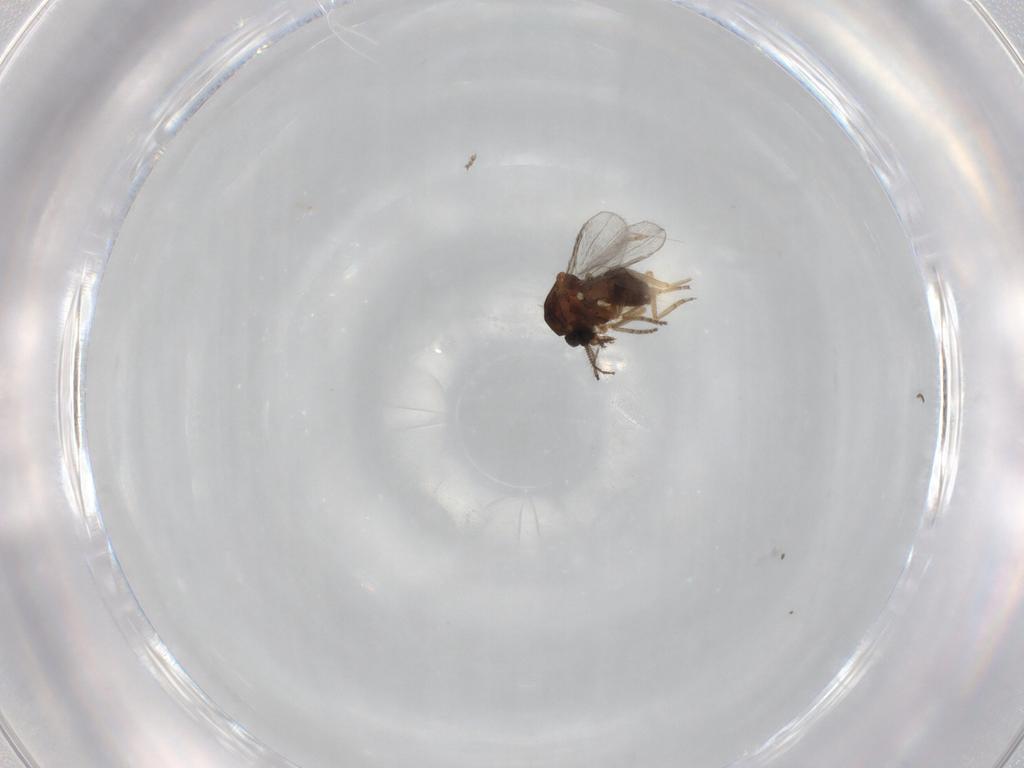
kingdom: Animalia
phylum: Arthropoda
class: Insecta
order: Diptera
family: Ceratopogonidae
